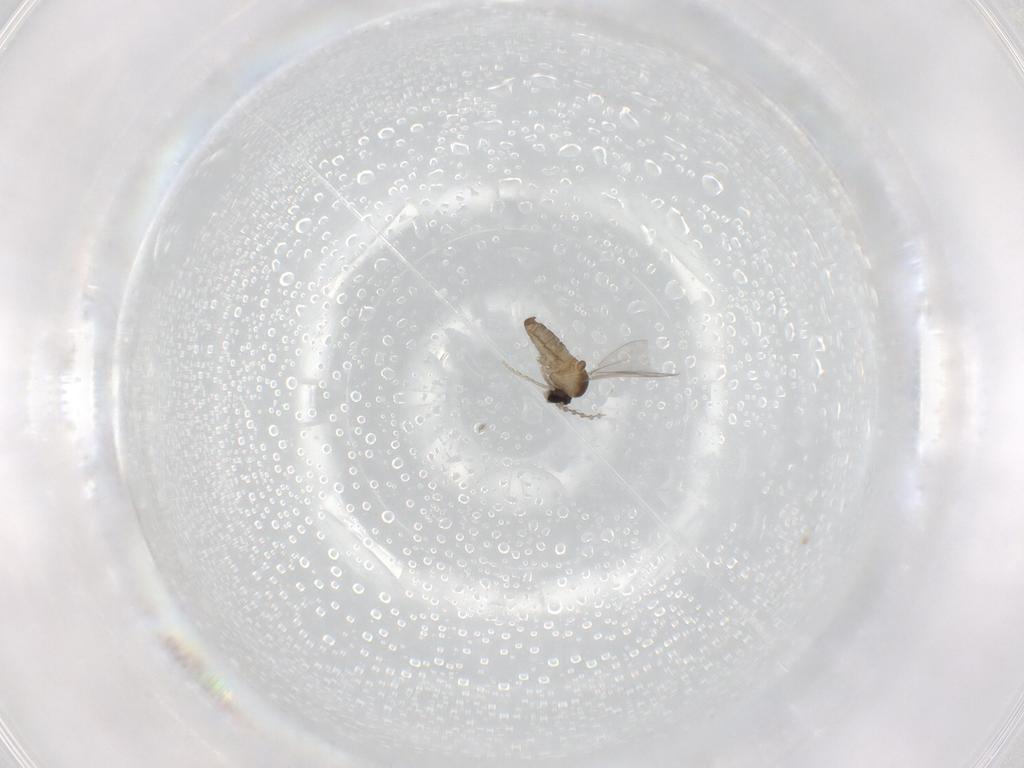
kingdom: Animalia
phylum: Arthropoda
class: Insecta
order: Diptera
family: Cecidomyiidae
